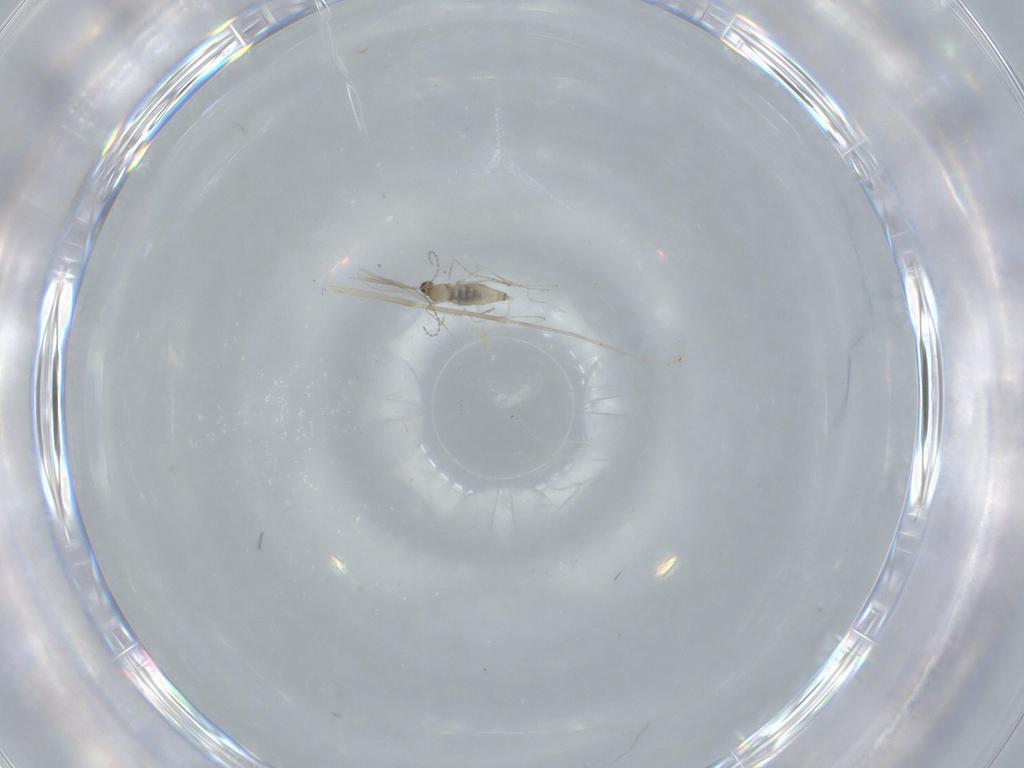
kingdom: Animalia
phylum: Arthropoda
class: Insecta
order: Diptera
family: Cecidomyiidae
